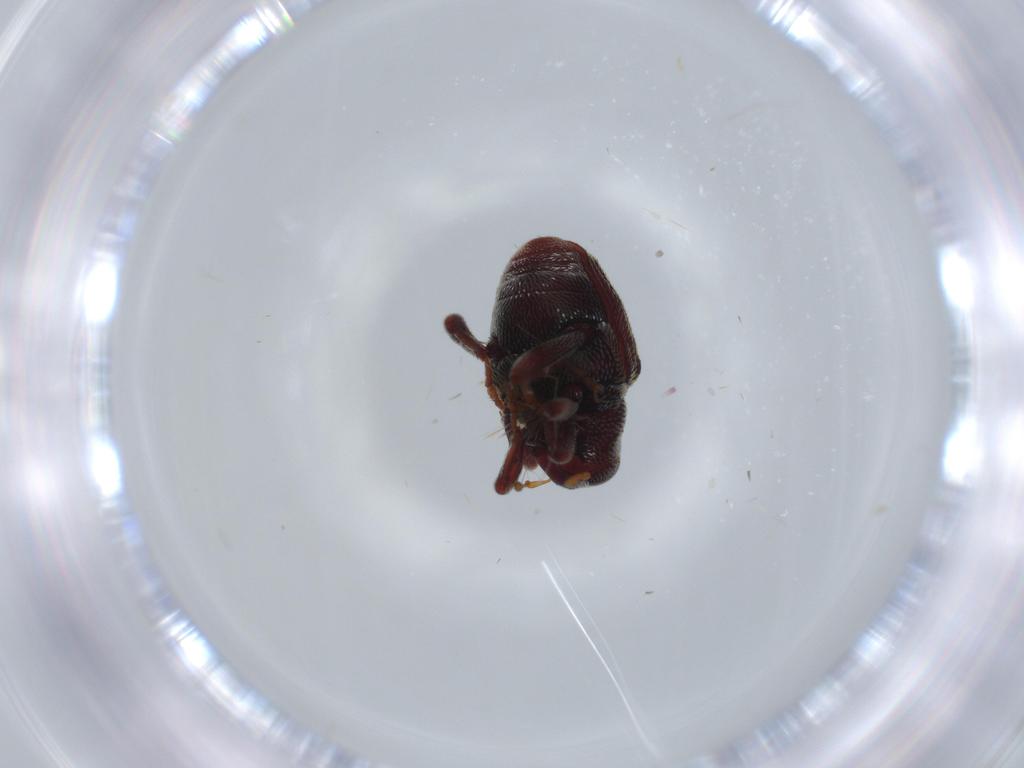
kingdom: Animalia
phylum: Arthropoda
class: Insecta
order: Coleoptera
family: Curculionidae
